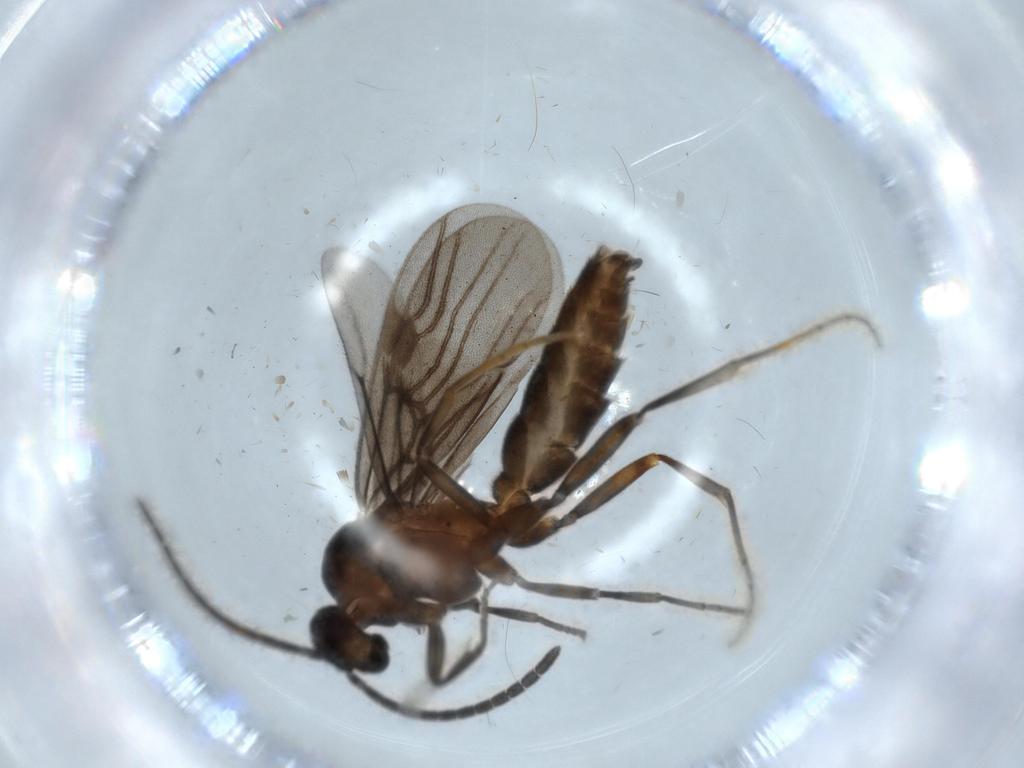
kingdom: Animalia
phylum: Arthropoda
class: Insecta
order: Hymenoptera
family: Formicidae
